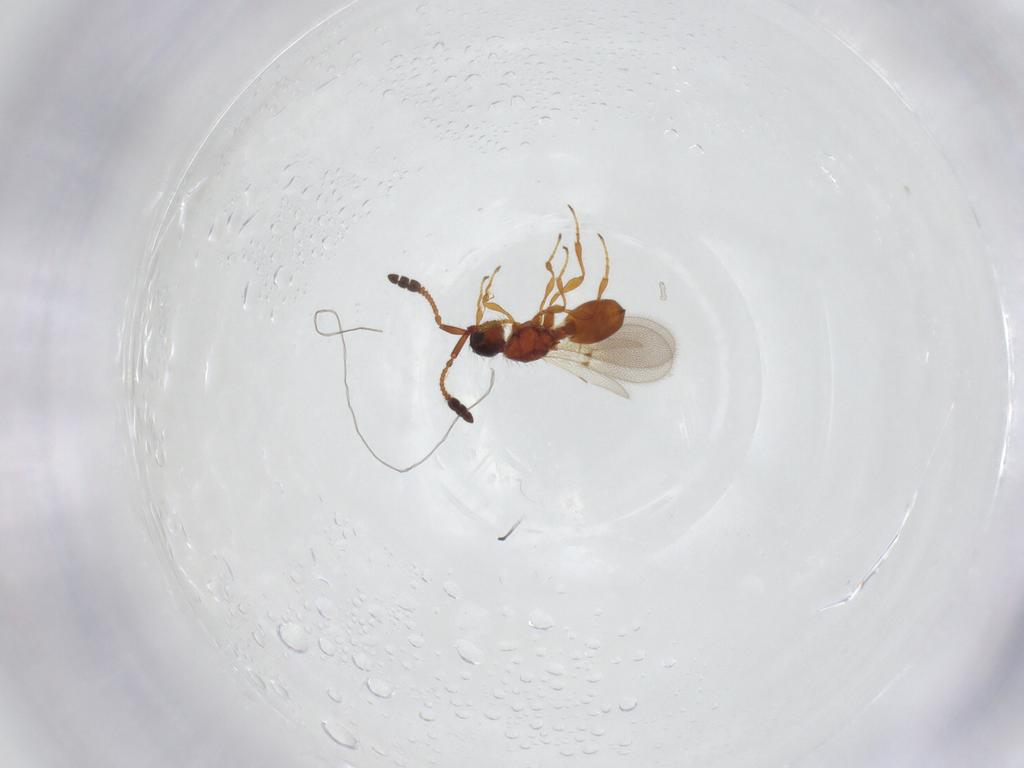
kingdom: Animalia
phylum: Arthropoda
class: Insecta
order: Hymenoptera
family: Diapriidae
